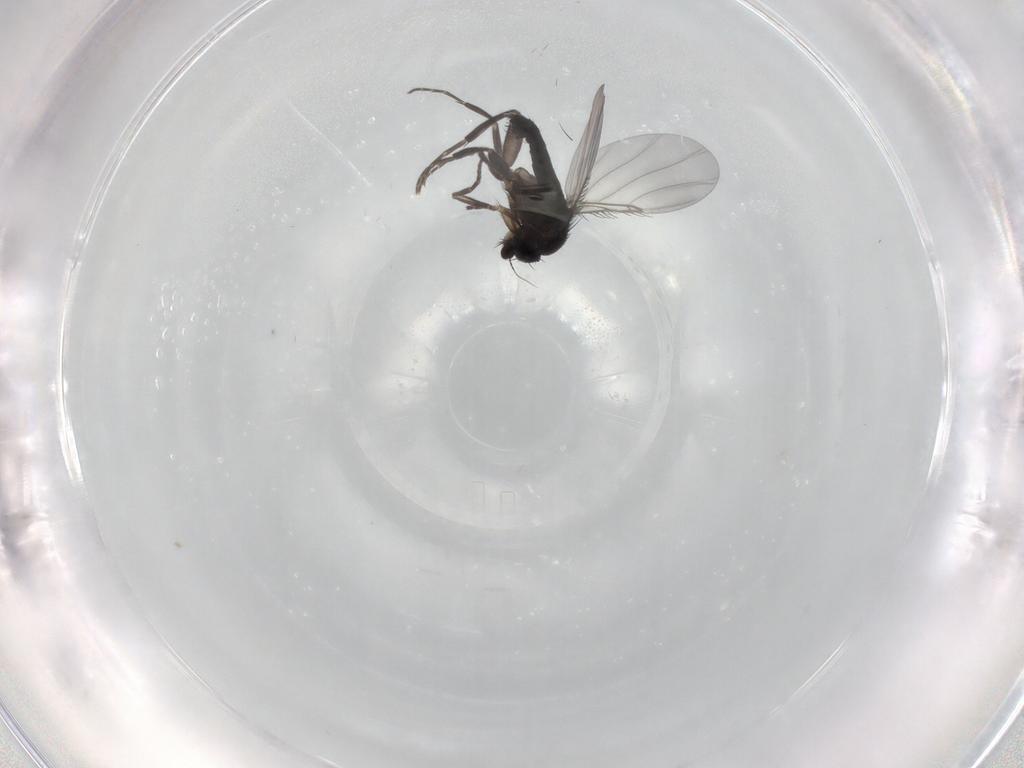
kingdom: Animalia
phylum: Arthropoda
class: Insecta
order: Diptera
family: Phoridae
